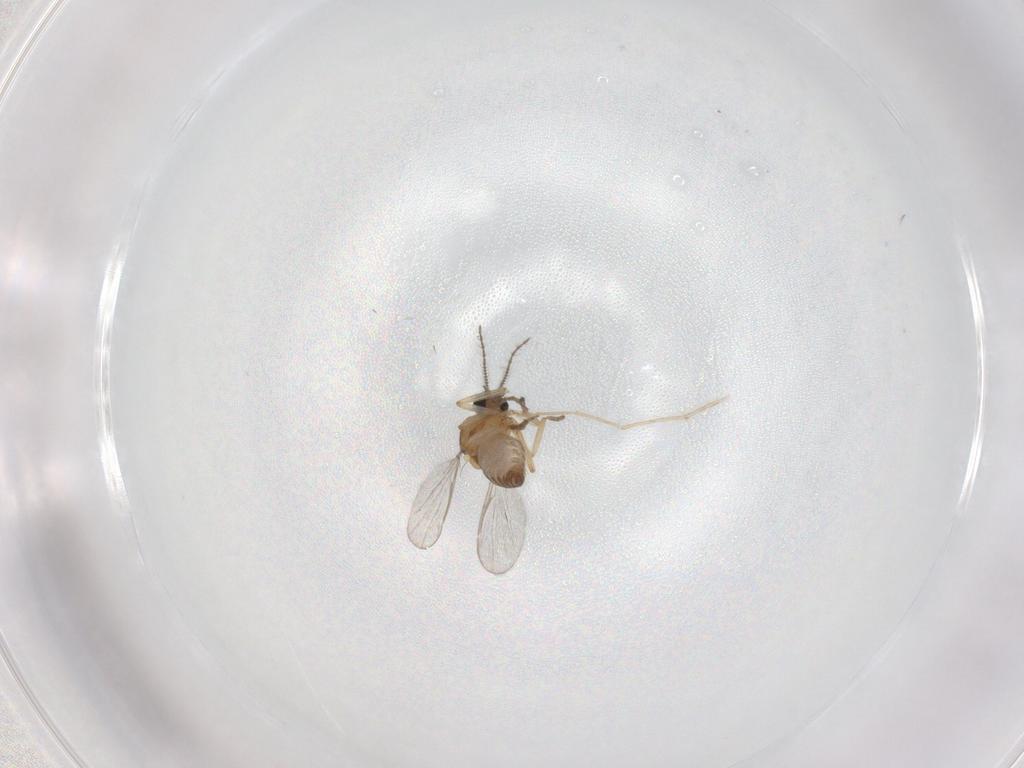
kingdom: Animalia
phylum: Arthropoda
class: Insecta
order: Diptera
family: Ceratopogonidae
